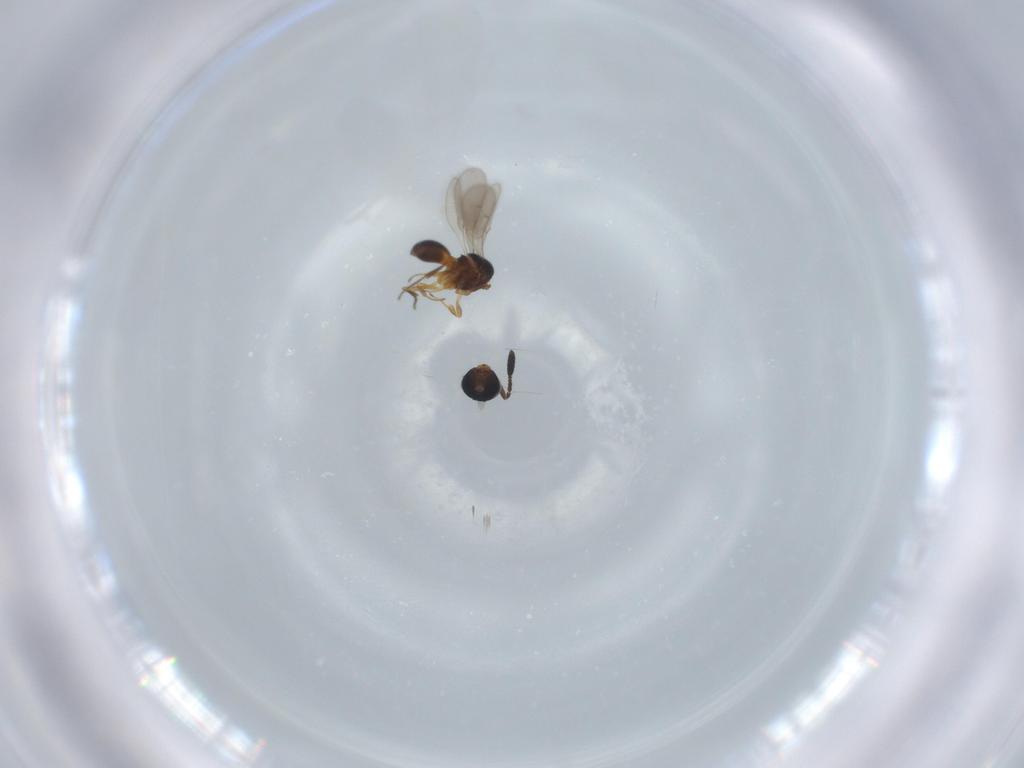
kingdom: Animalia
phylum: Arthropoda
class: Insecta
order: Hymenoptera
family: Scelionidae
